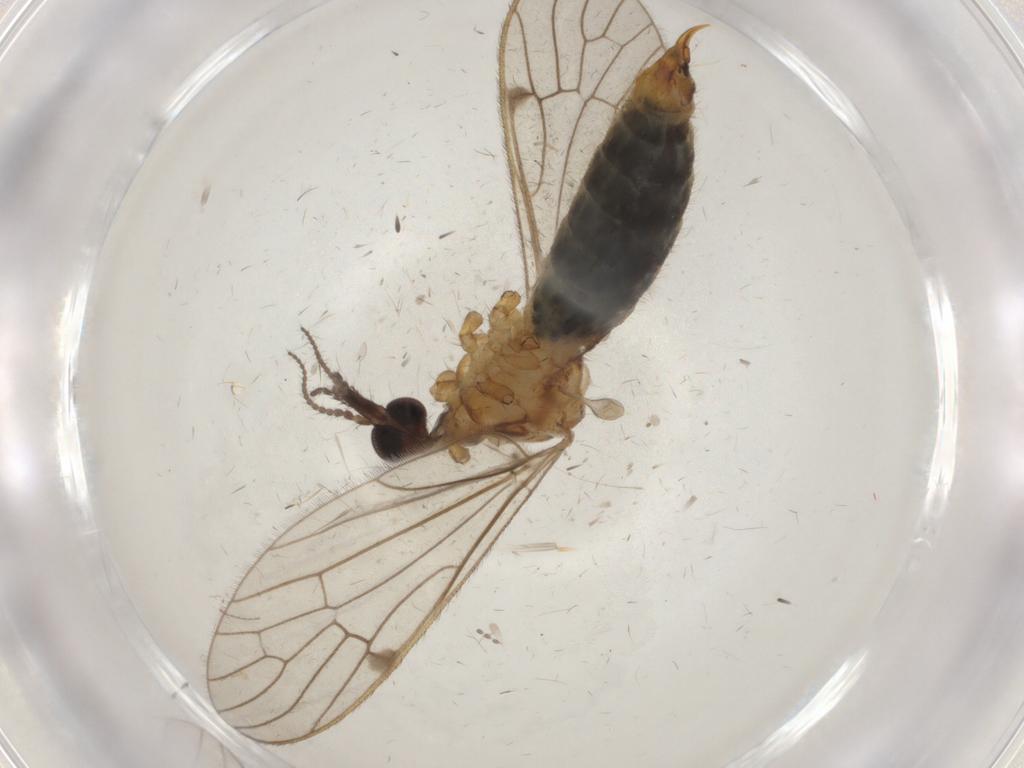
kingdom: Animalia
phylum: Arthropoda
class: Insecta
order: Diptera
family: Limoniidae
